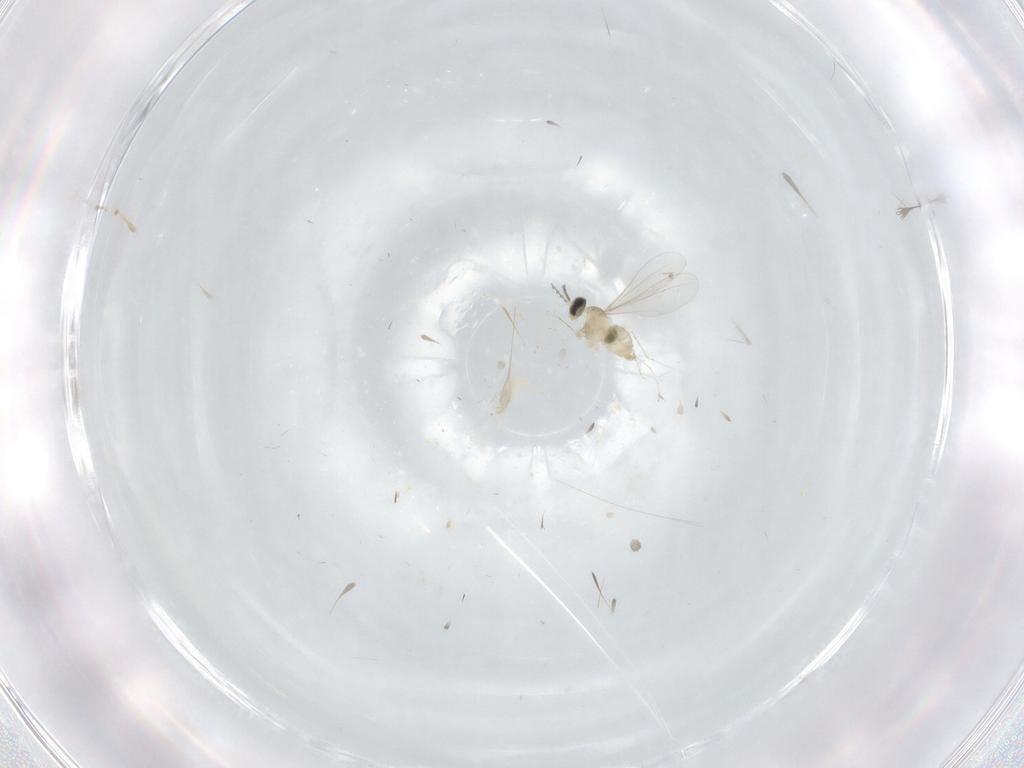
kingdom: Animalia
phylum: Arthropoda
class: Insecta
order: Diptera
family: Cecidomyiidae
